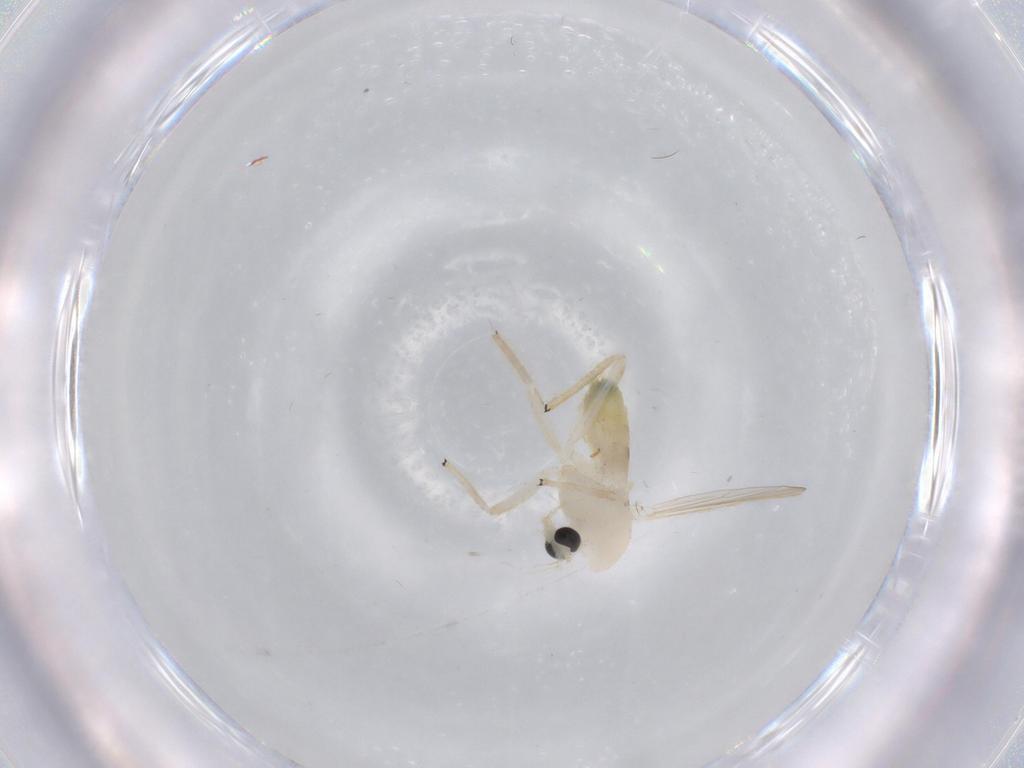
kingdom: Animalia
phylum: Arthropoda
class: Insecta
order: Diptera
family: Chironomidae
